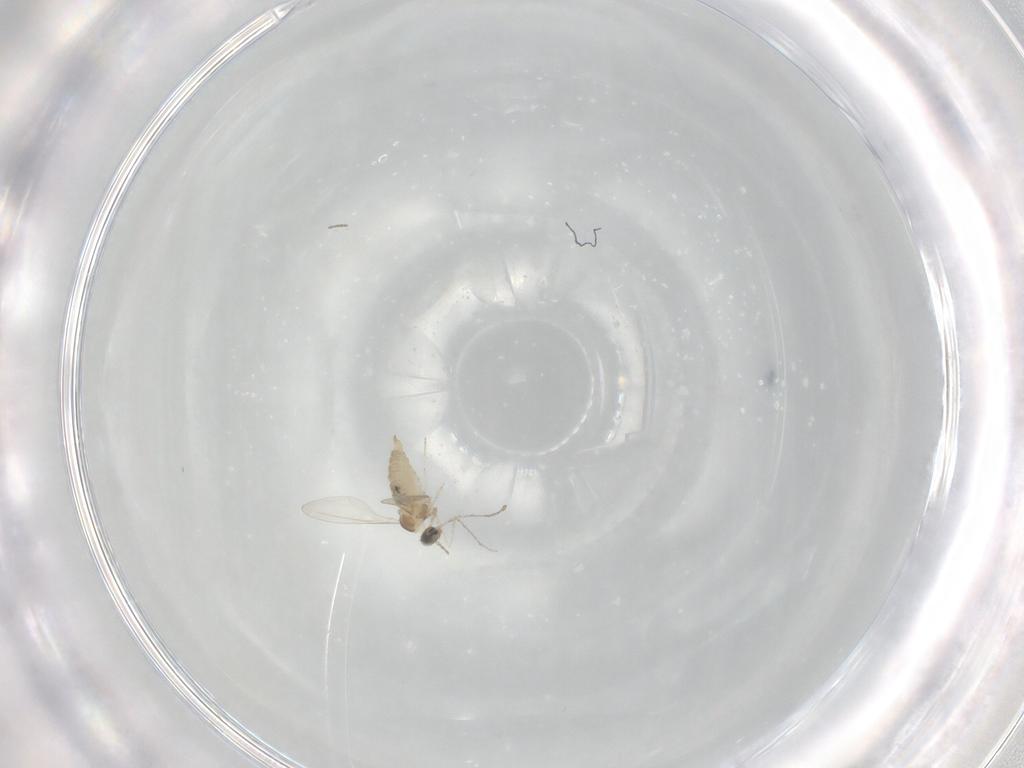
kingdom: Animalia
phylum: Arthropoda
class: Insecta
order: Diptera
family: Cecidomyiidae
